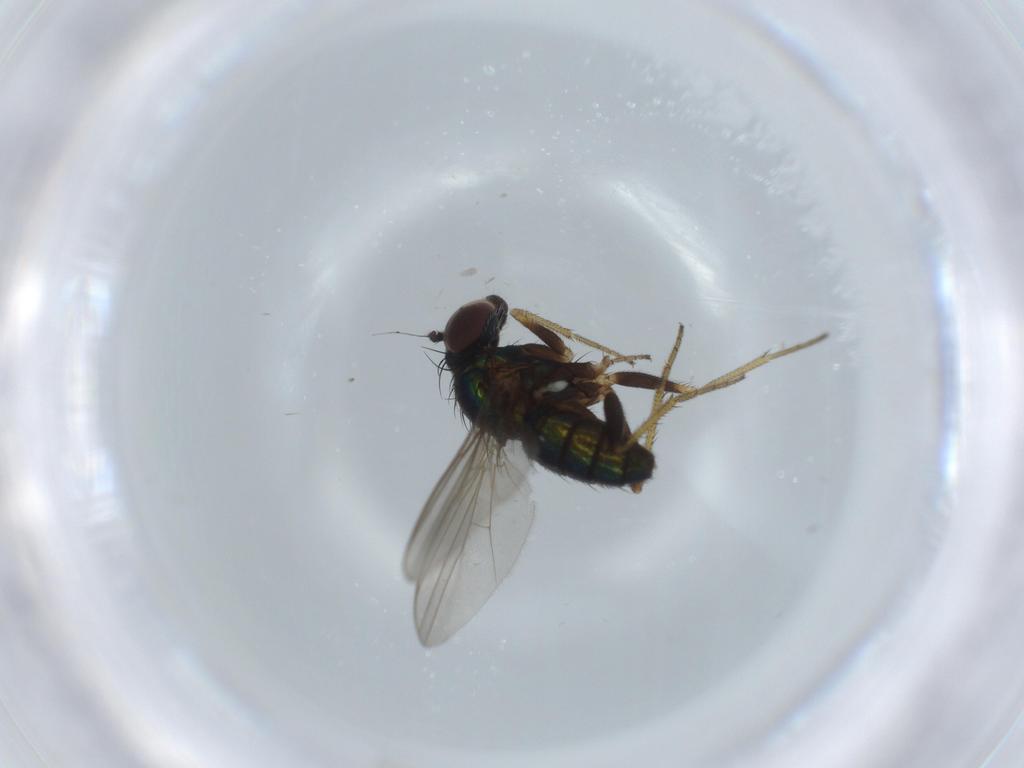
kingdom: Animalia
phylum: Arthropoda
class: Insecta
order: Diptera
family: Dolichopodidae
